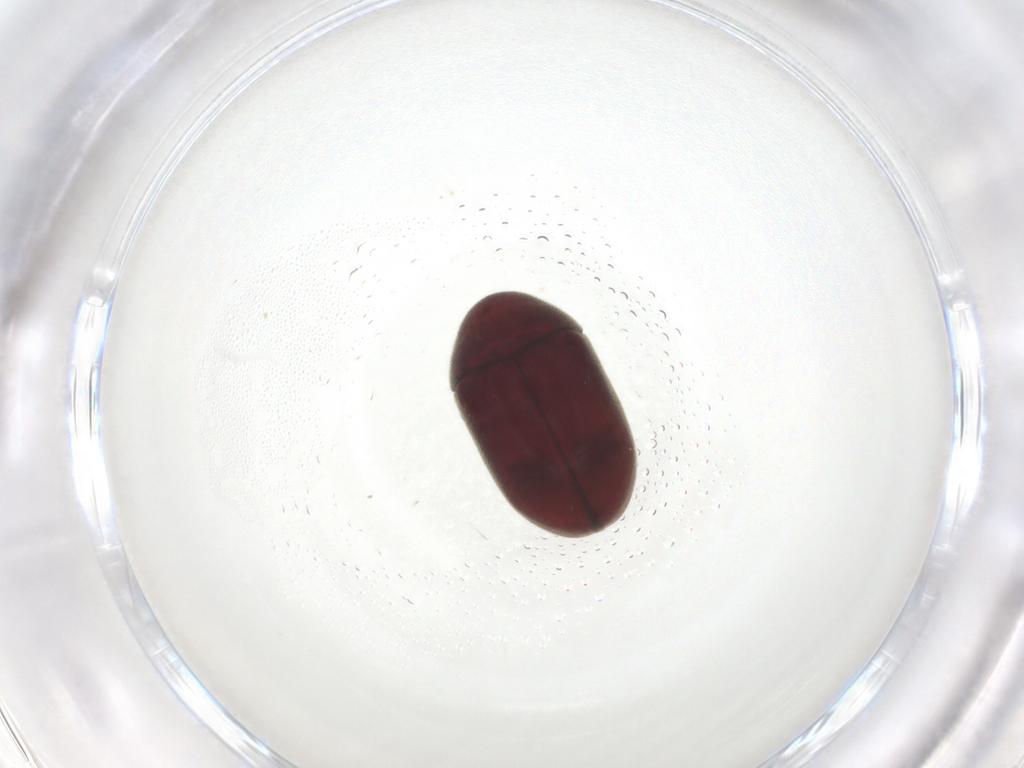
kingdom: Animalia
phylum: Arthropoda
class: Insecta
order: Coleoptera
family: Ptinidae
